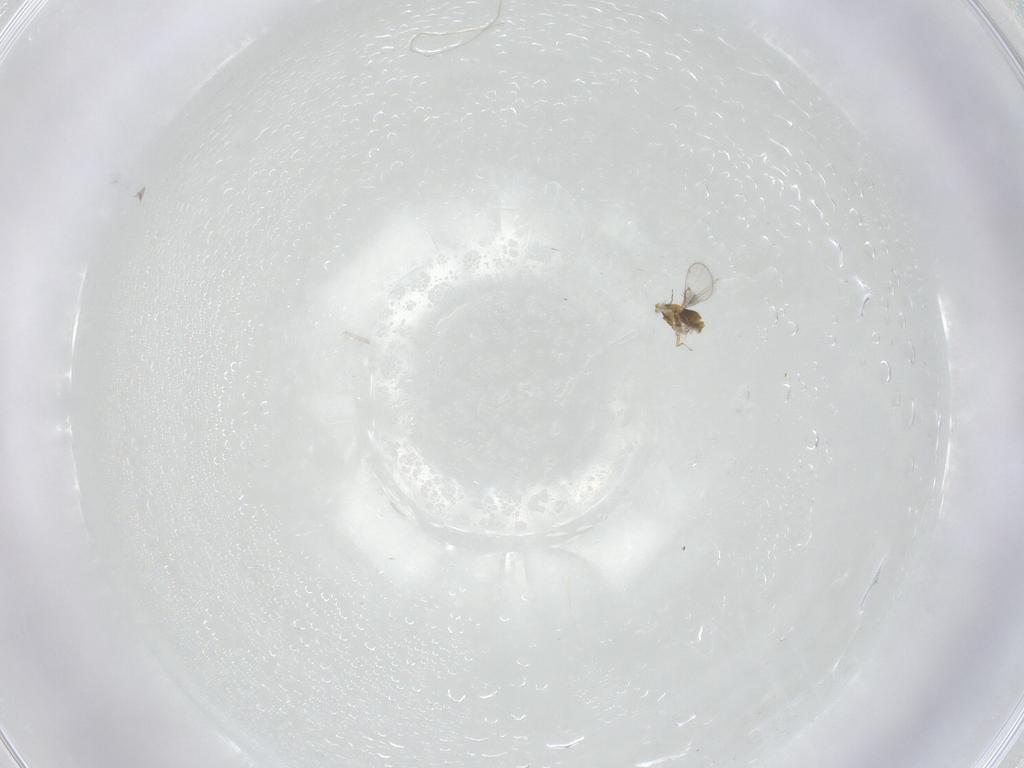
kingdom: Animalia
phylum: Arthropoda
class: Insecta
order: Hymenoptera
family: Trichogrammatidae
